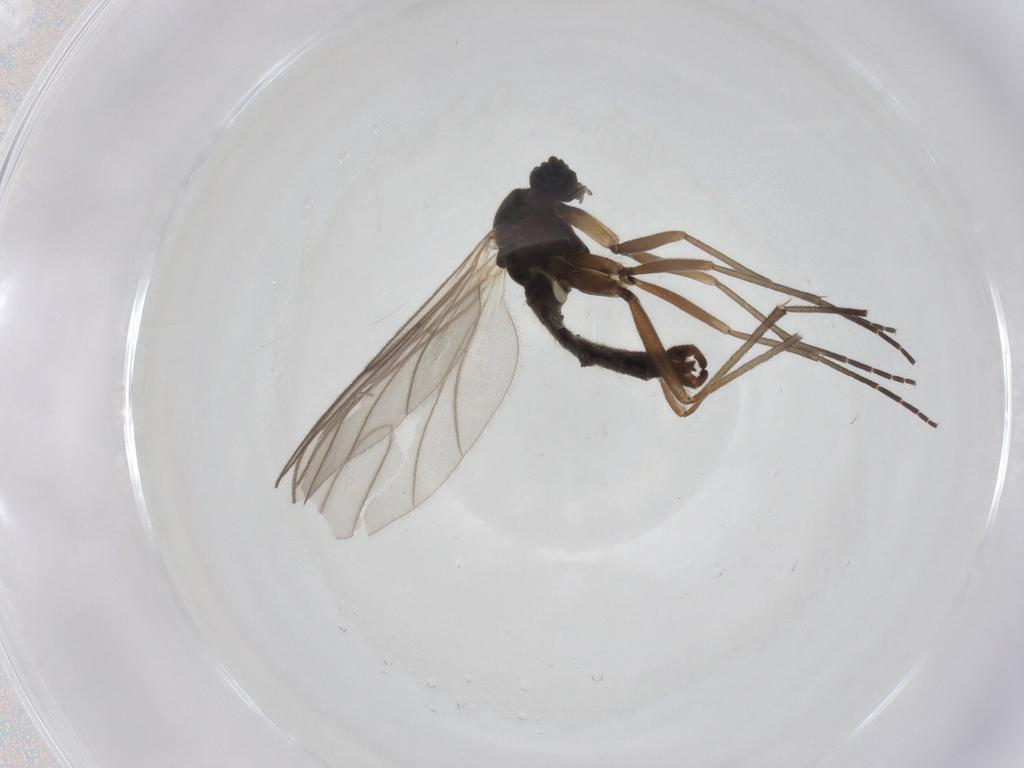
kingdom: Animalia
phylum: Arthropoda
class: Insecta
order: Diptera
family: Sciaridae
